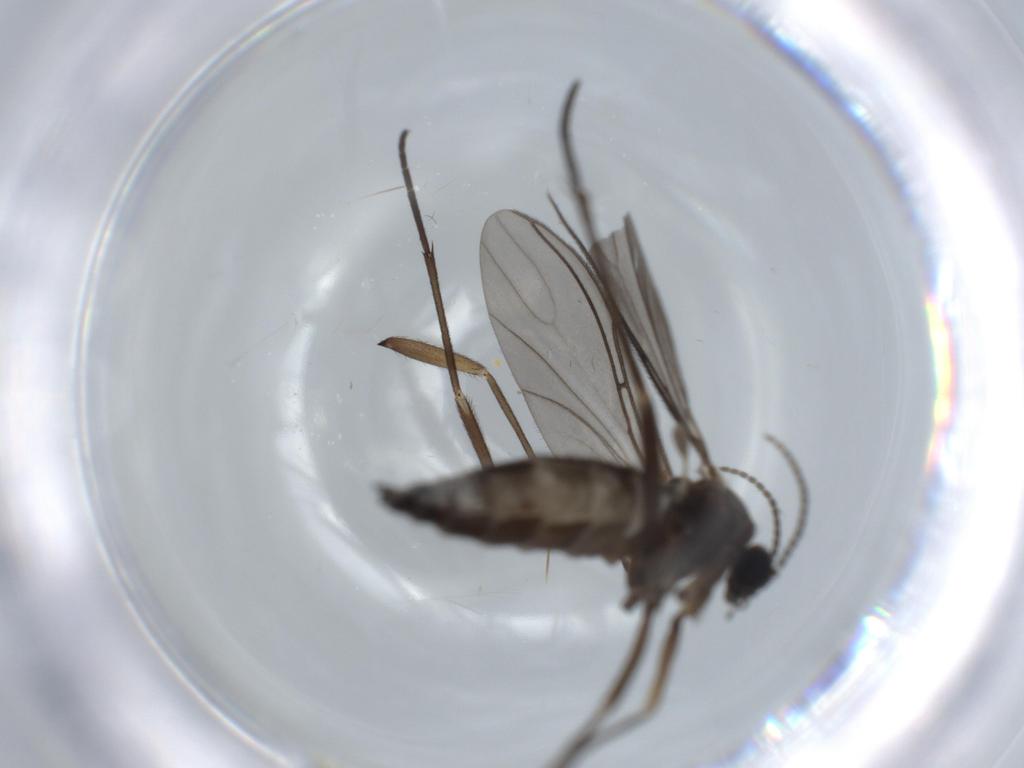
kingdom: Animalia
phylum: Arthropoda
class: Insecta
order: Diptera
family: Sciaridae
